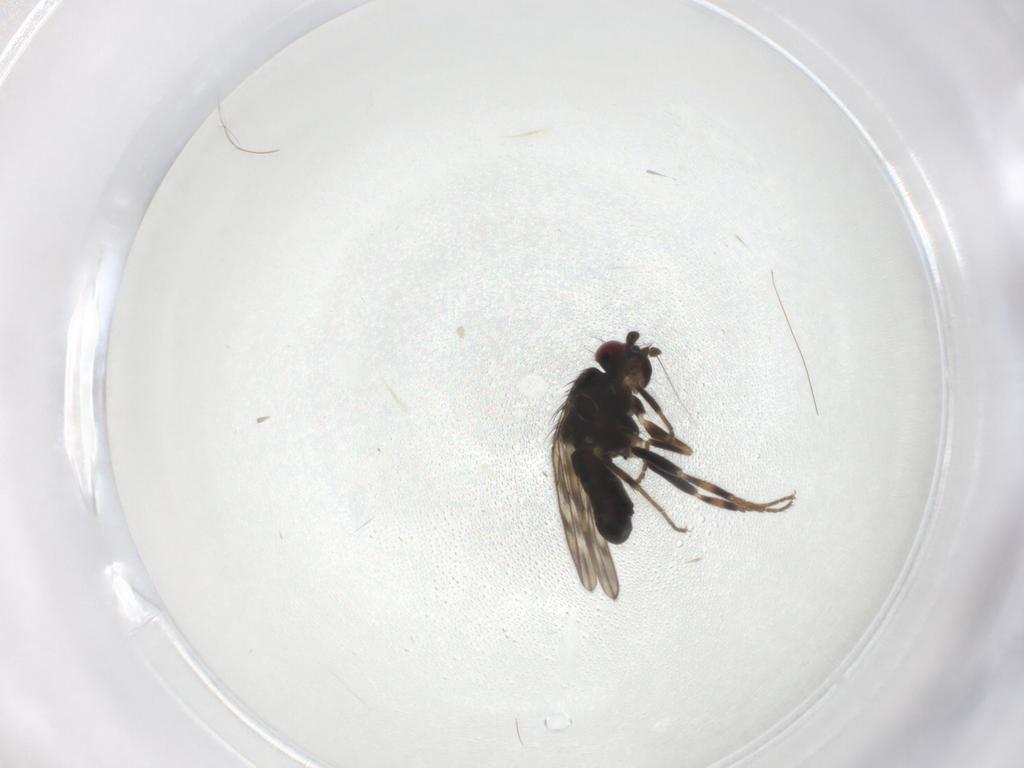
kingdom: Animalia
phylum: Arthropoda
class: Insecta
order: Diptera
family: Sphaeroceridae
